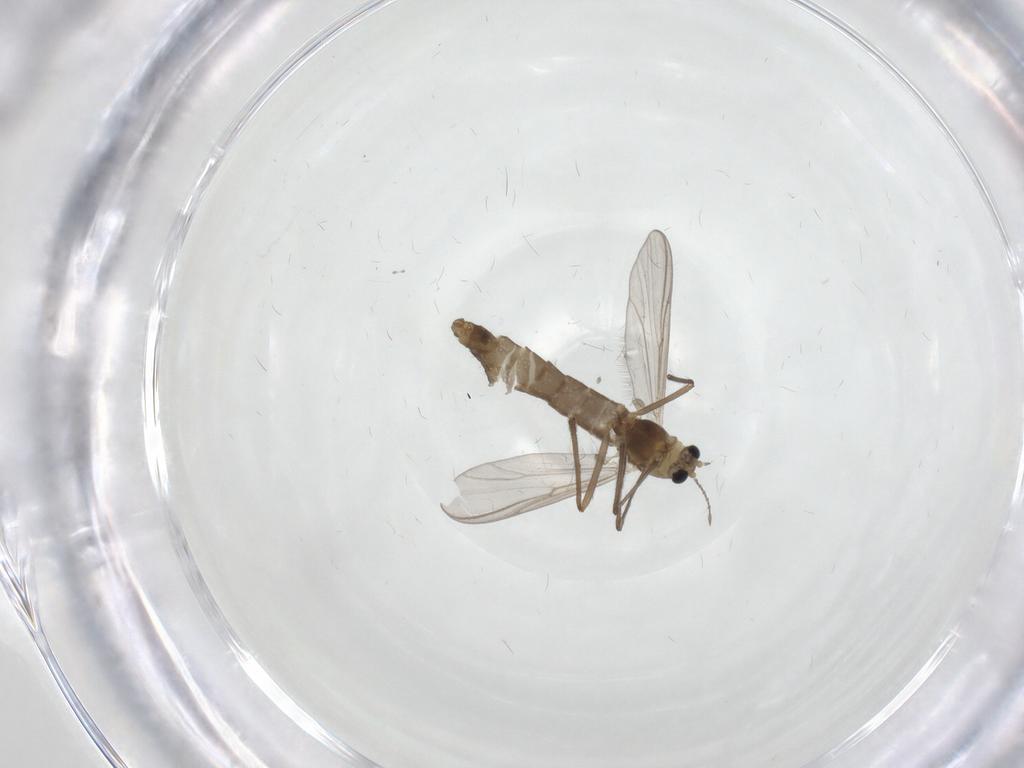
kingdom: Animalia
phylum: Arthropoda
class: Insecta
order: Diptera
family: Chironomidae
